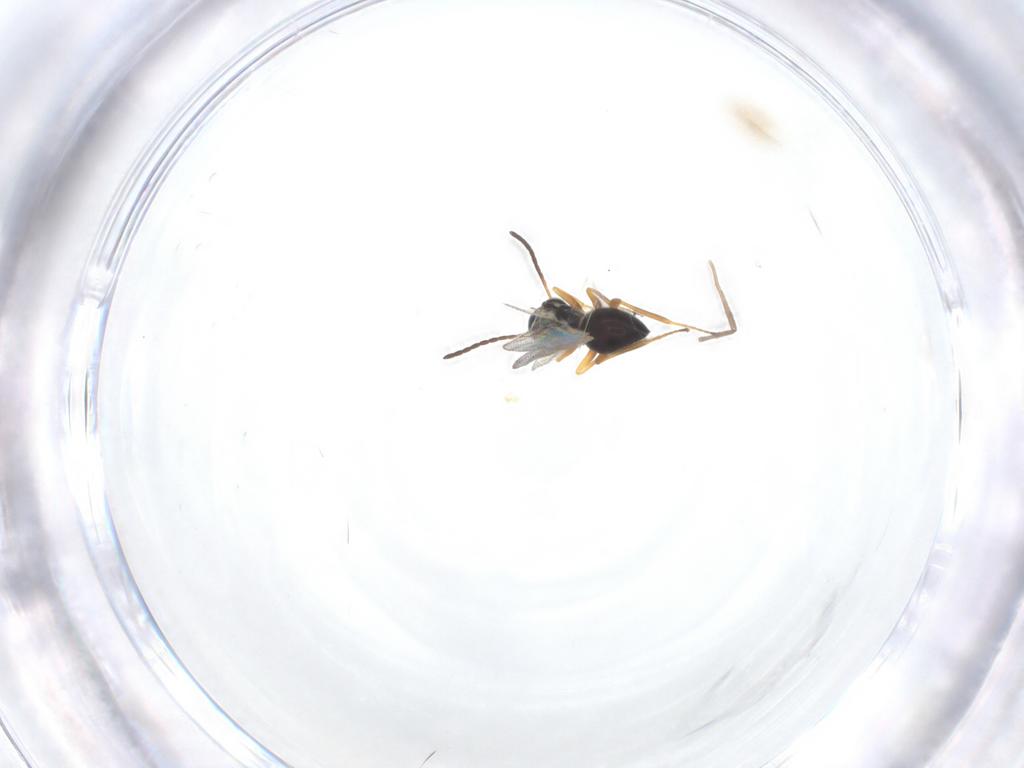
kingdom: Animalia
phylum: Arthropoda
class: Insecta
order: Hymenoptera
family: Figitidae
